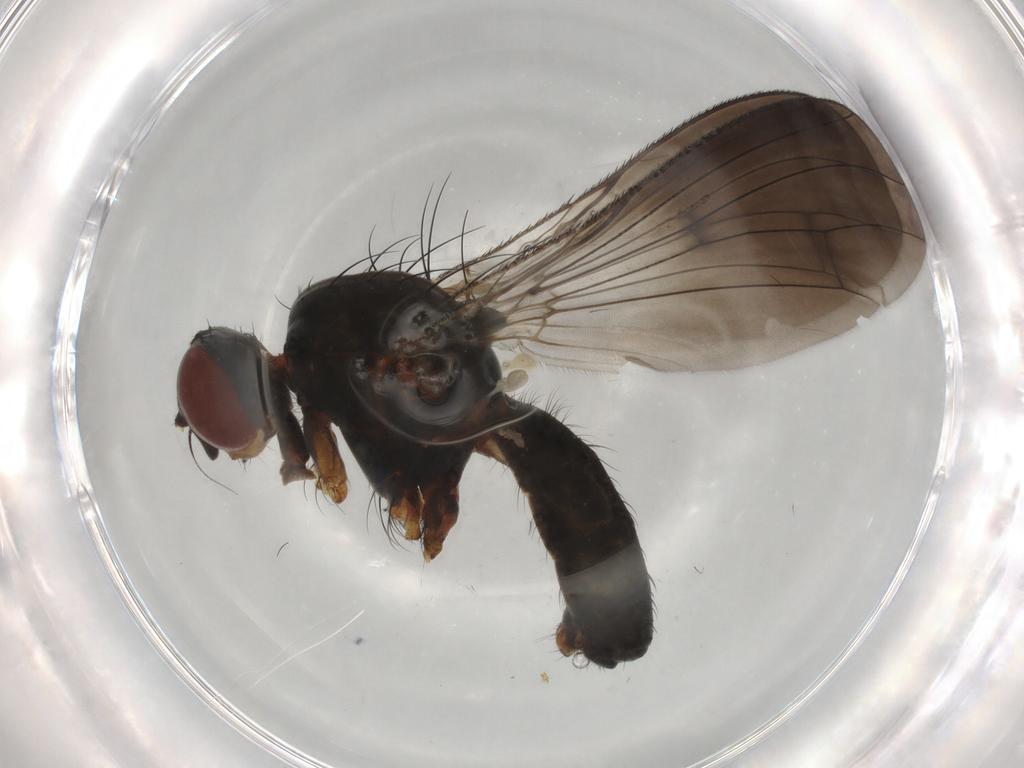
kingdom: Animalia
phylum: Arthropoda
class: Insecta
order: Diptera
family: Anthomyiidae
